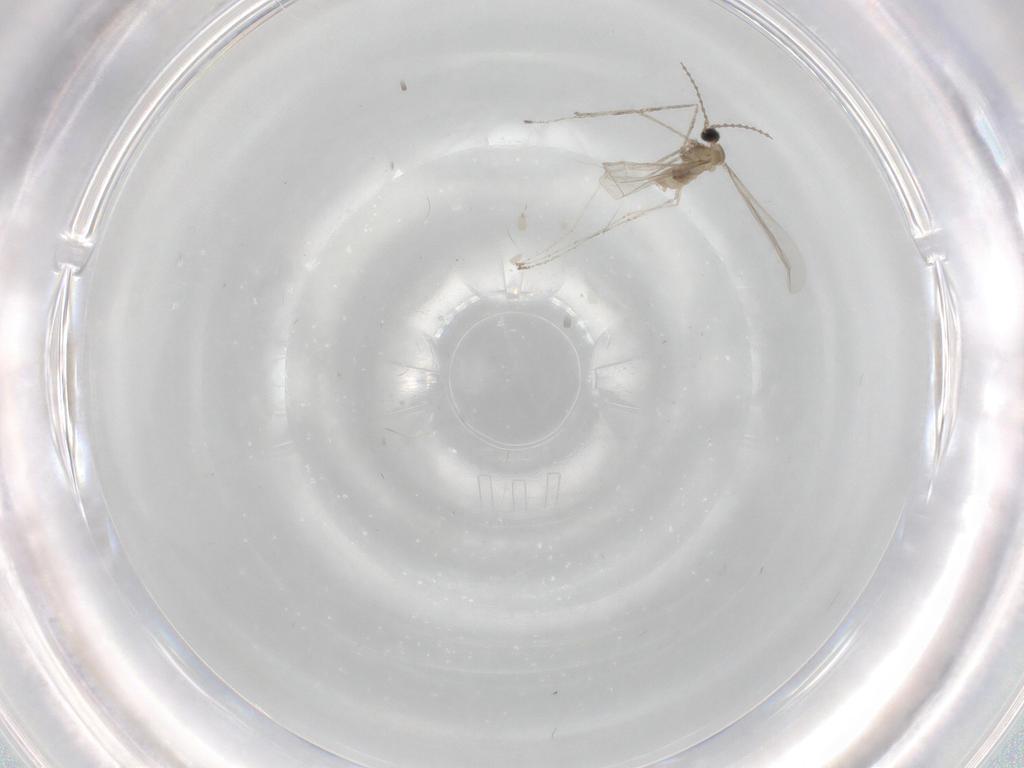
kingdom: Animalia
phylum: Arthropoda
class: Insecta
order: Diptera
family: Cecidomyiidae
